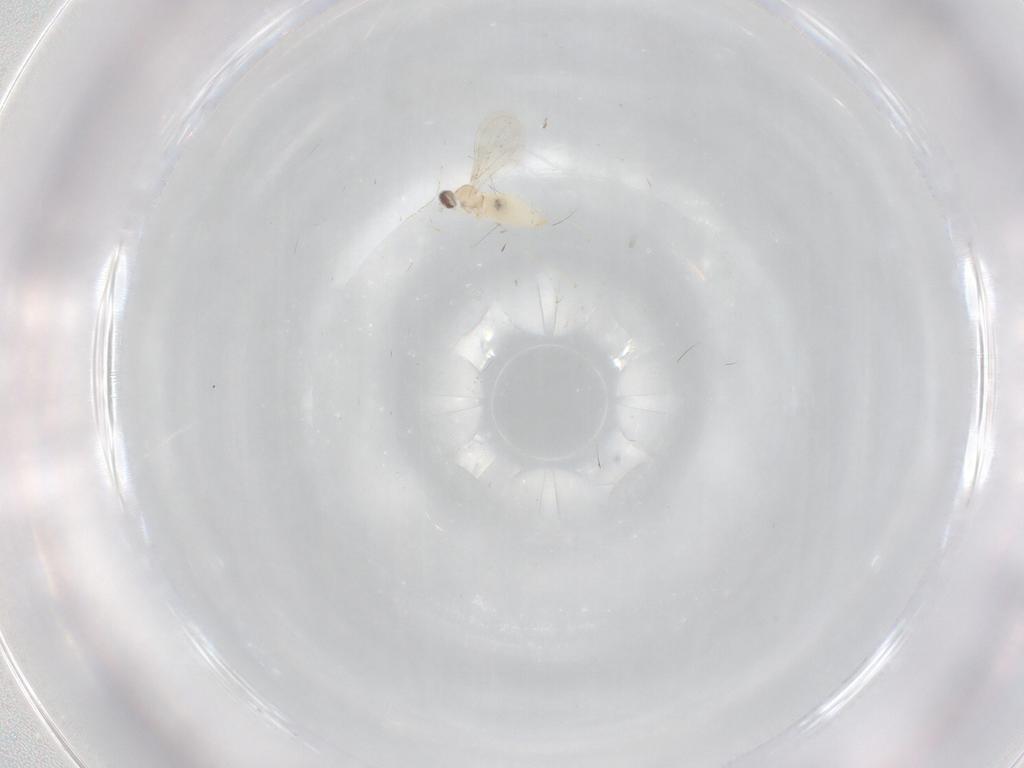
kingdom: Animalia
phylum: Arthropoda
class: Insecta
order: Diptera
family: Cecidomyiidae
